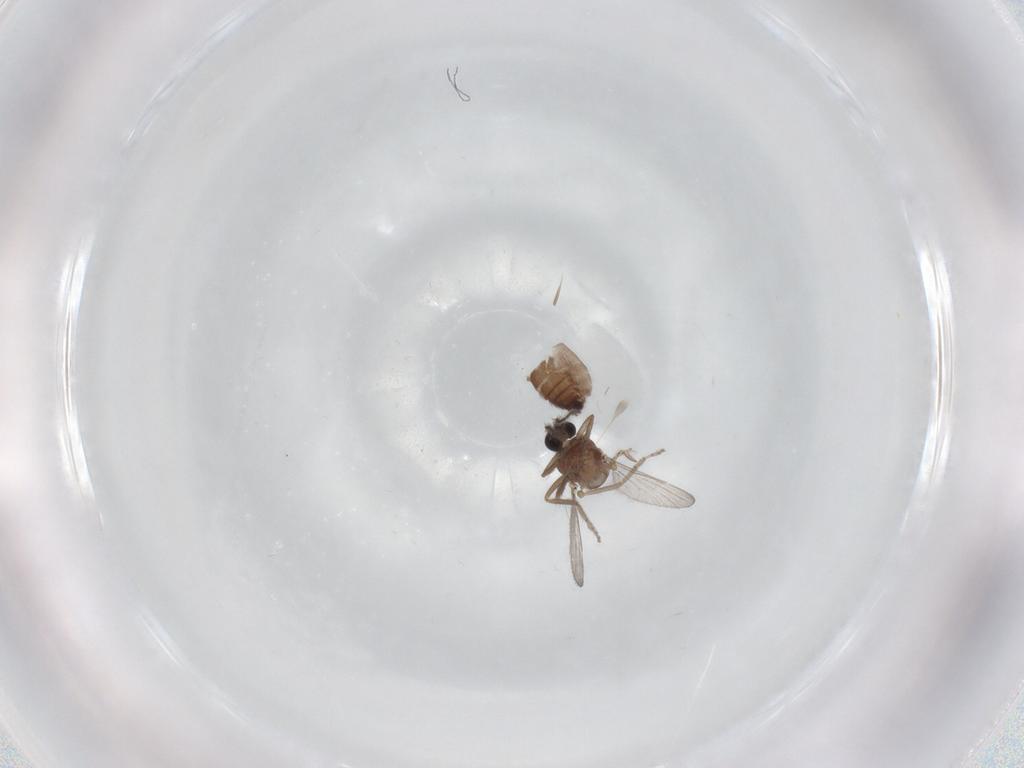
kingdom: Animalia
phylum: Arthropoda
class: Insecta
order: Diptera
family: Ceratopogonidae
